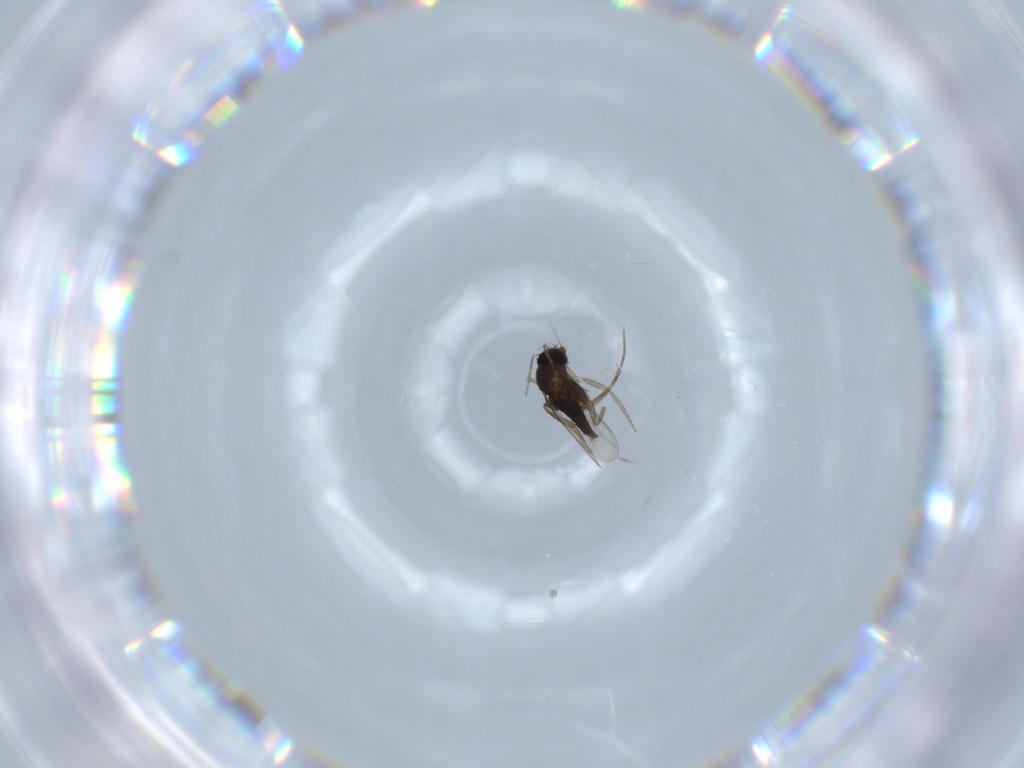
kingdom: Animalia
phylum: Arthropoda
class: Insecta
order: Diptera
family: Phoridae
